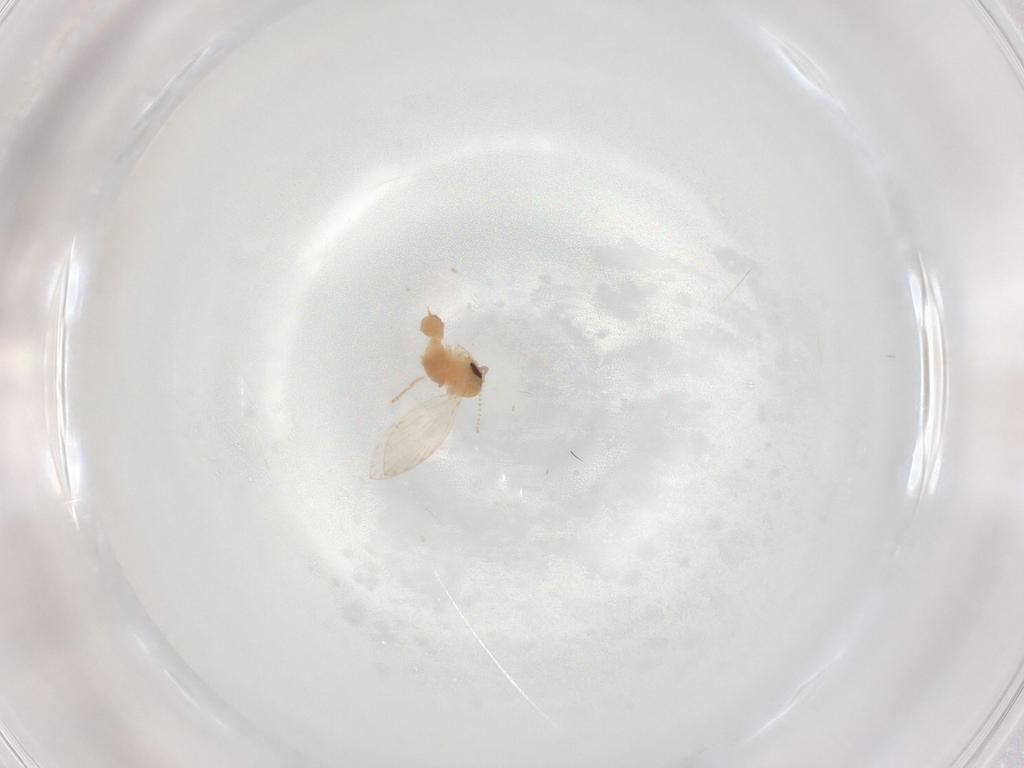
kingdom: Animalia
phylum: Arthropoda
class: Insecta
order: Diptera
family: Psychodidae
